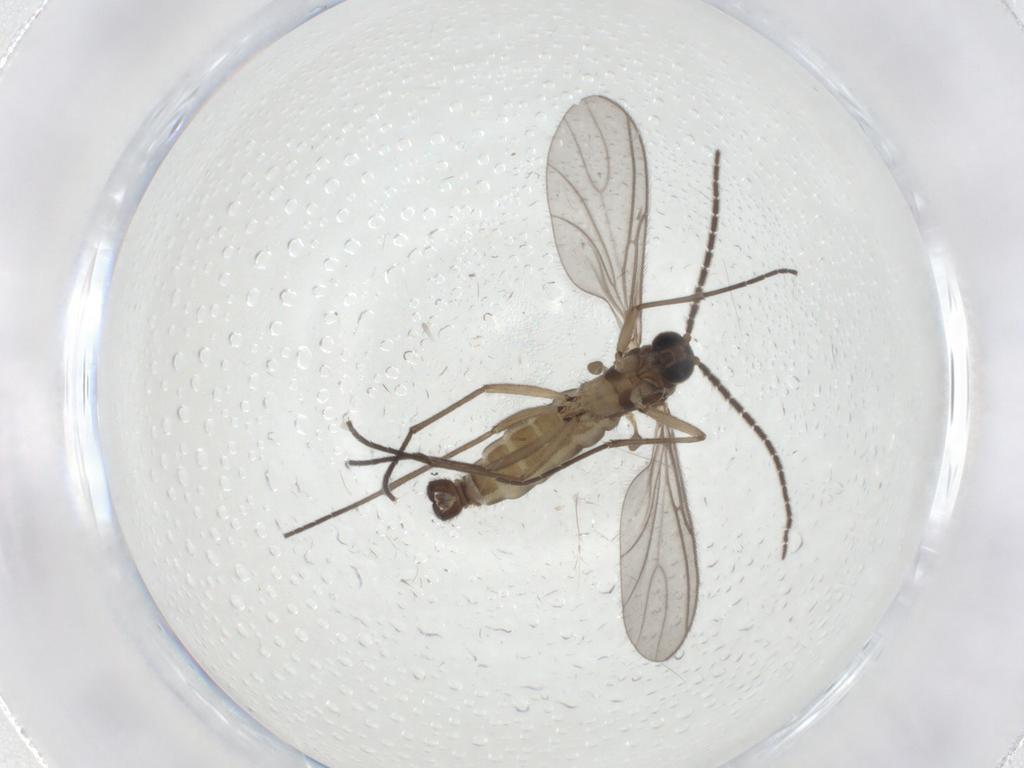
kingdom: Animalia
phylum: Arthropoda
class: Insecta
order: Diptera
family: Sciaridae
